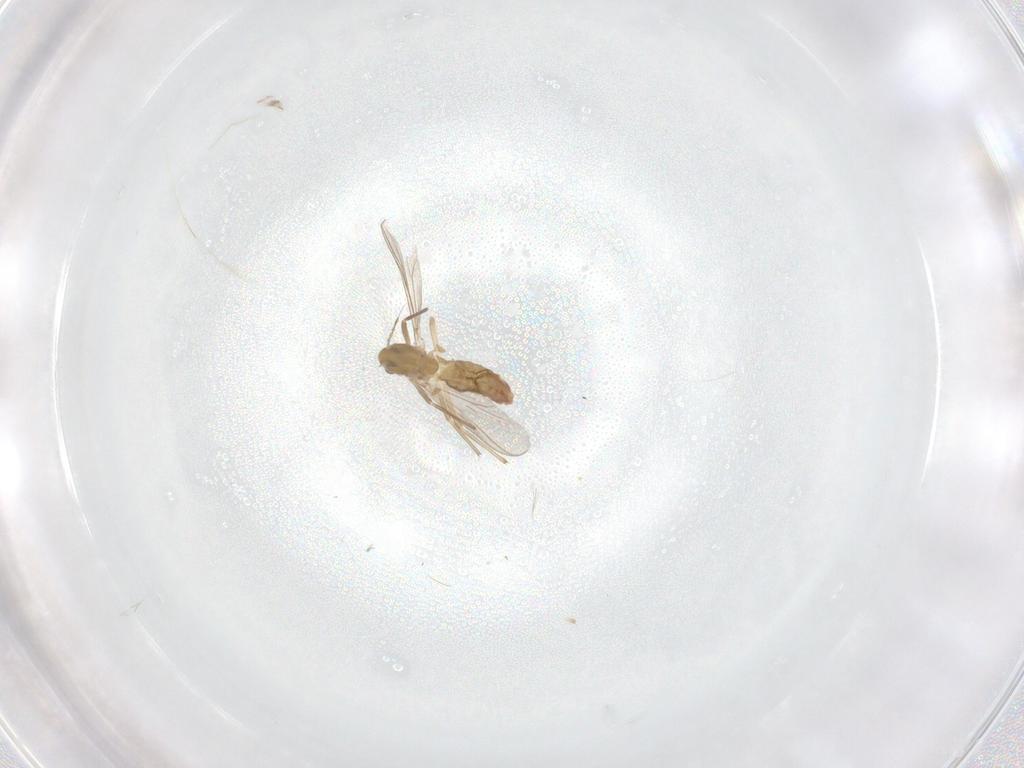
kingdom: Animalia
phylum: Arthropoda
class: Insecta
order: Diptera
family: Chironomidae
